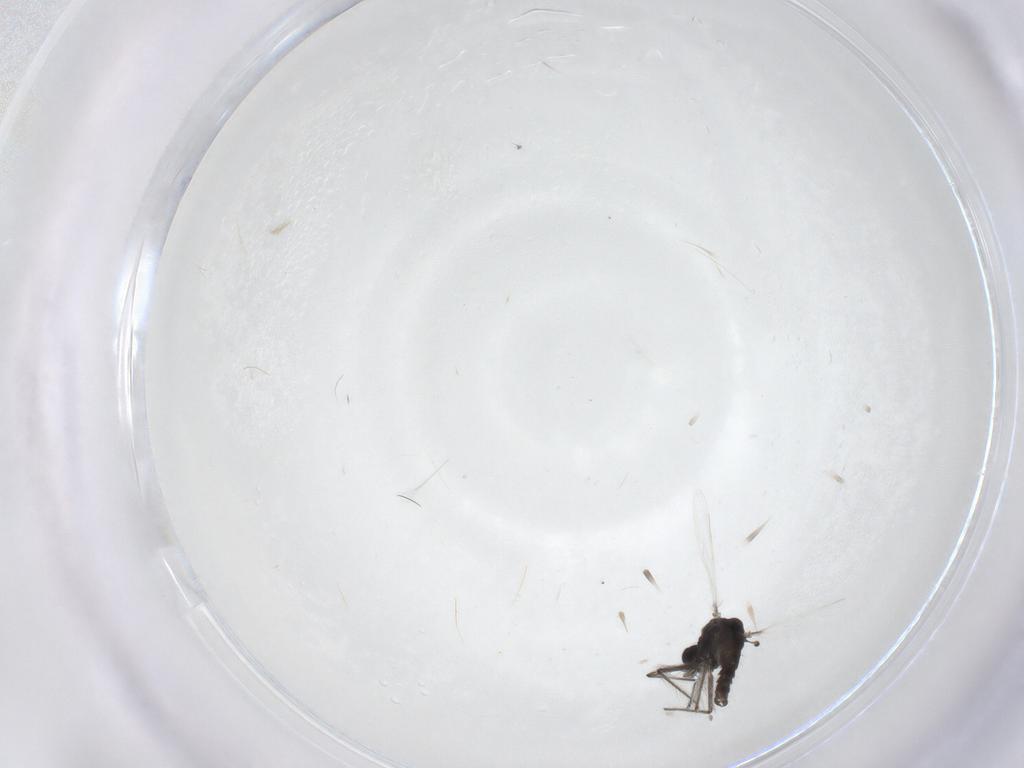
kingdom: Animalia
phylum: Arthropoda
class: Insecta
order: Diptera
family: Chironomidae
